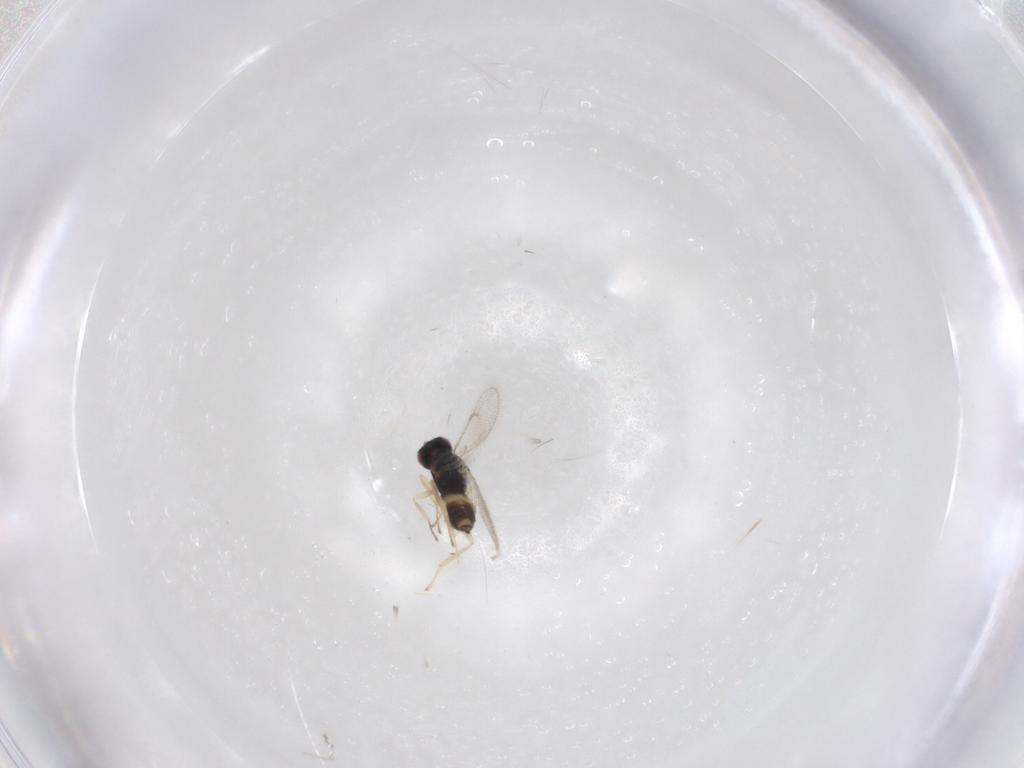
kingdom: Animalia
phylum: Arthropoda
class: Insecta
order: Hymenoptera
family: Eulophidae
